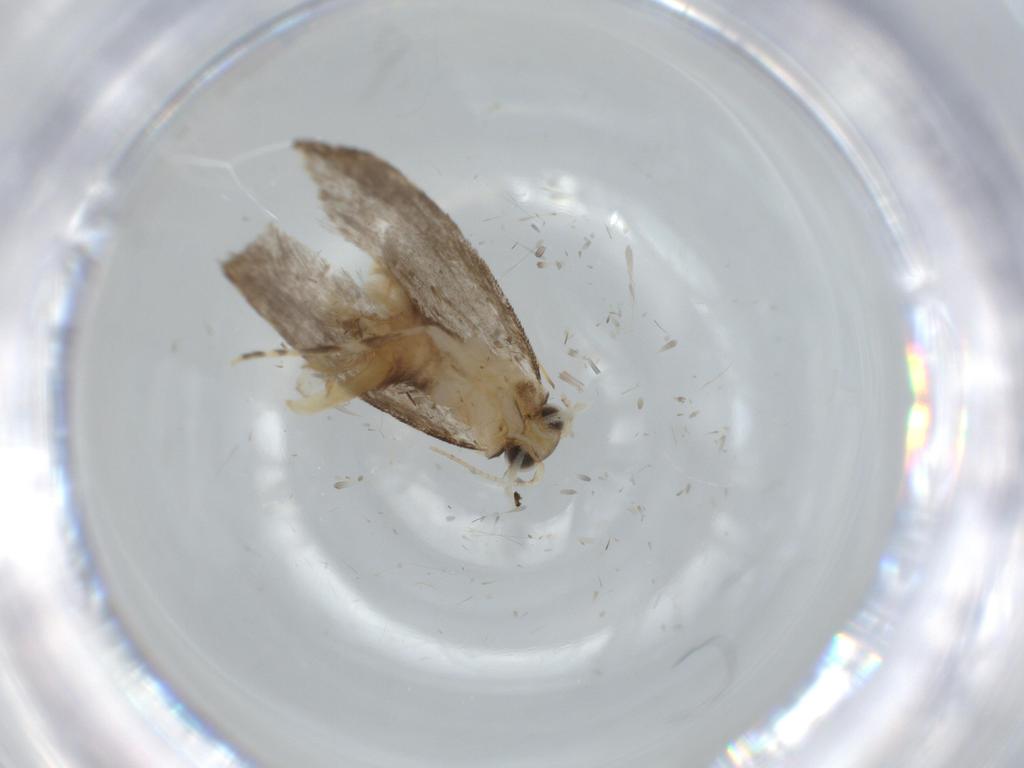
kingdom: Animalia
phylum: Arthropoda
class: Insecta
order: Lepidoptera
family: Tineidae
